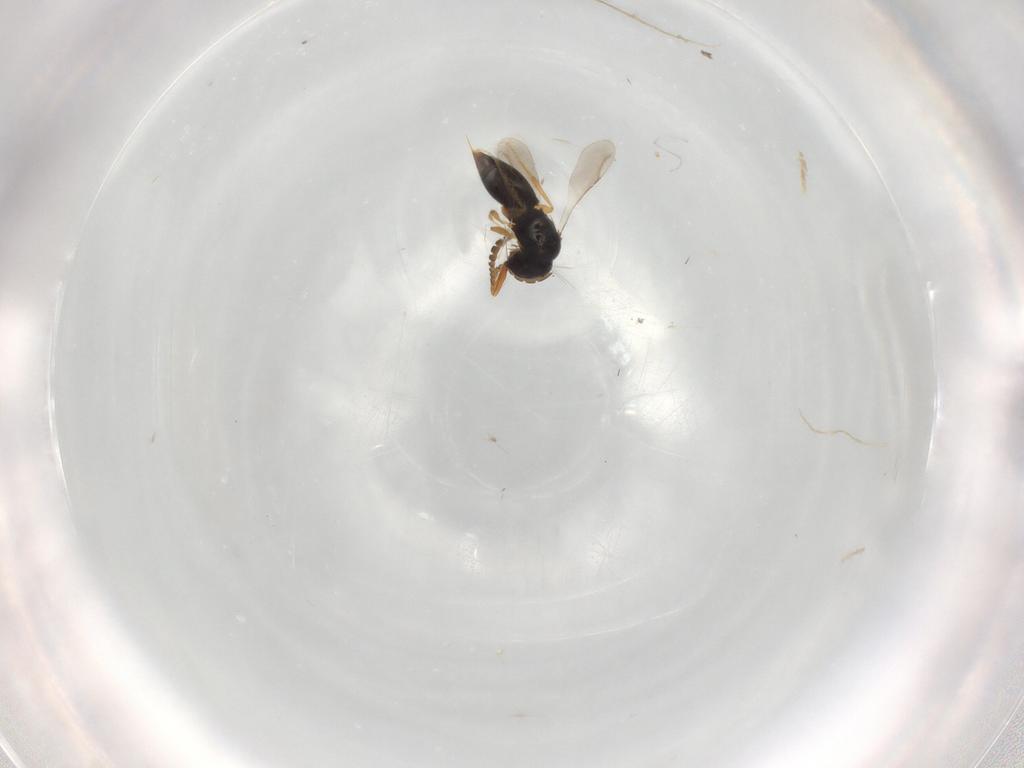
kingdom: Animalia
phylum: Arthropoda
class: Insecta
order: Hymenoptera
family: Ceraphronidae
